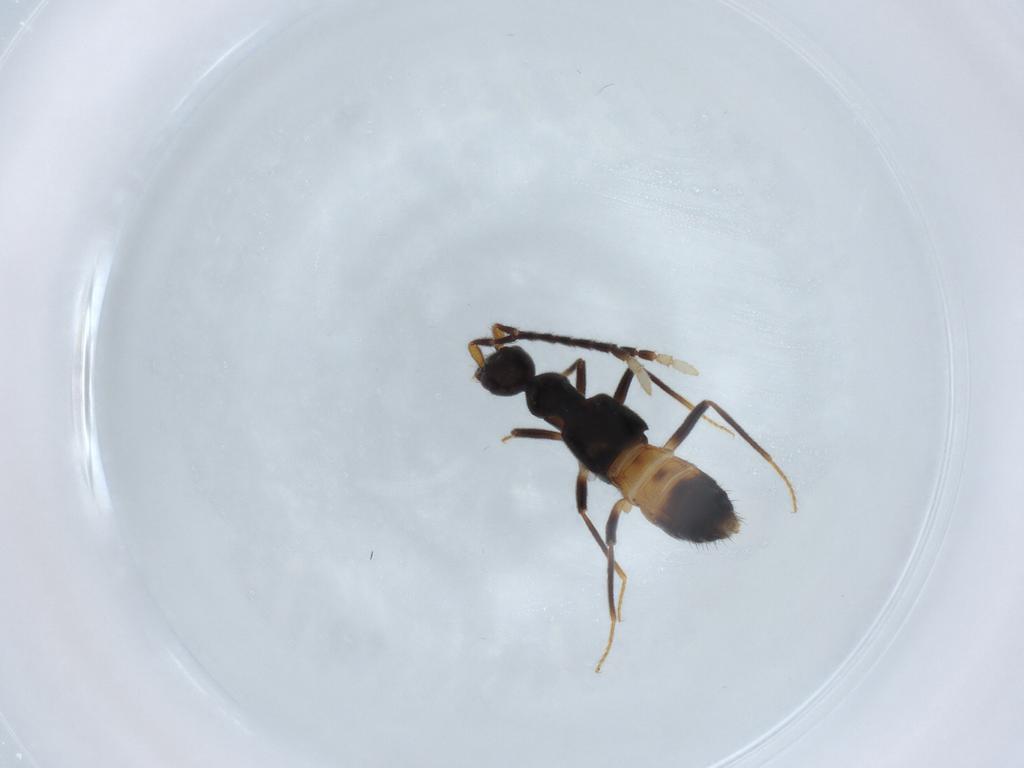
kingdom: Animalia
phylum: Arthropoda
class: Insecta
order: Coleoptera
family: Staphylinidae
